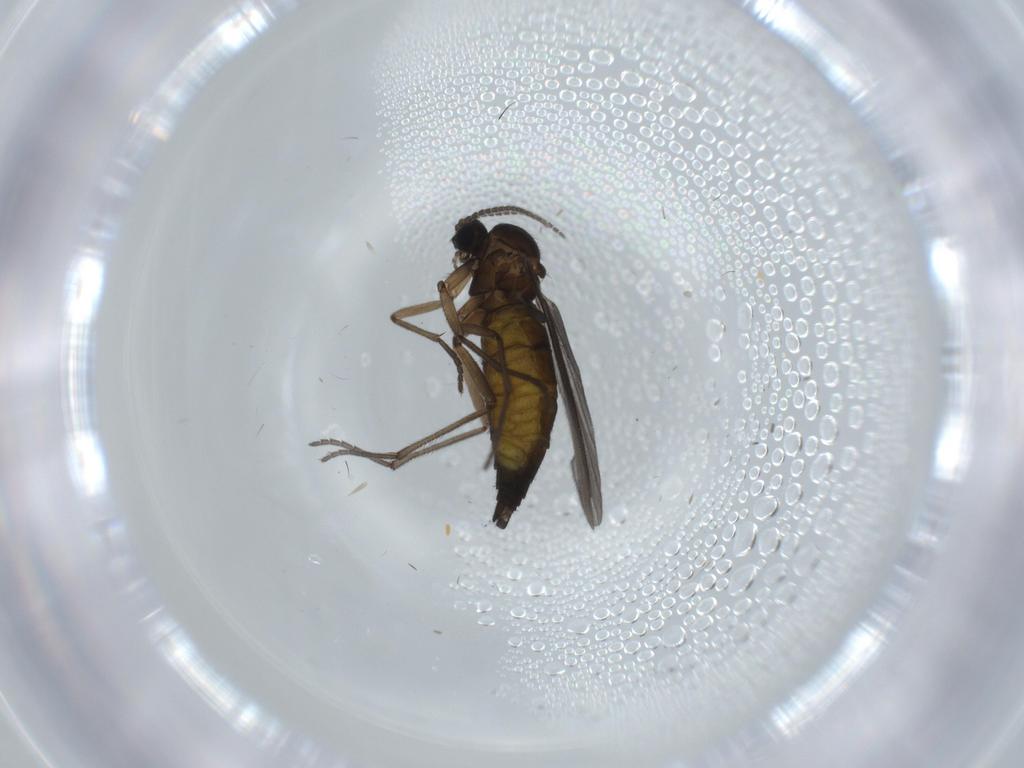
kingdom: Animalia
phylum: Arthropoda
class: Insecta
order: Diptera
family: Sciaridae
